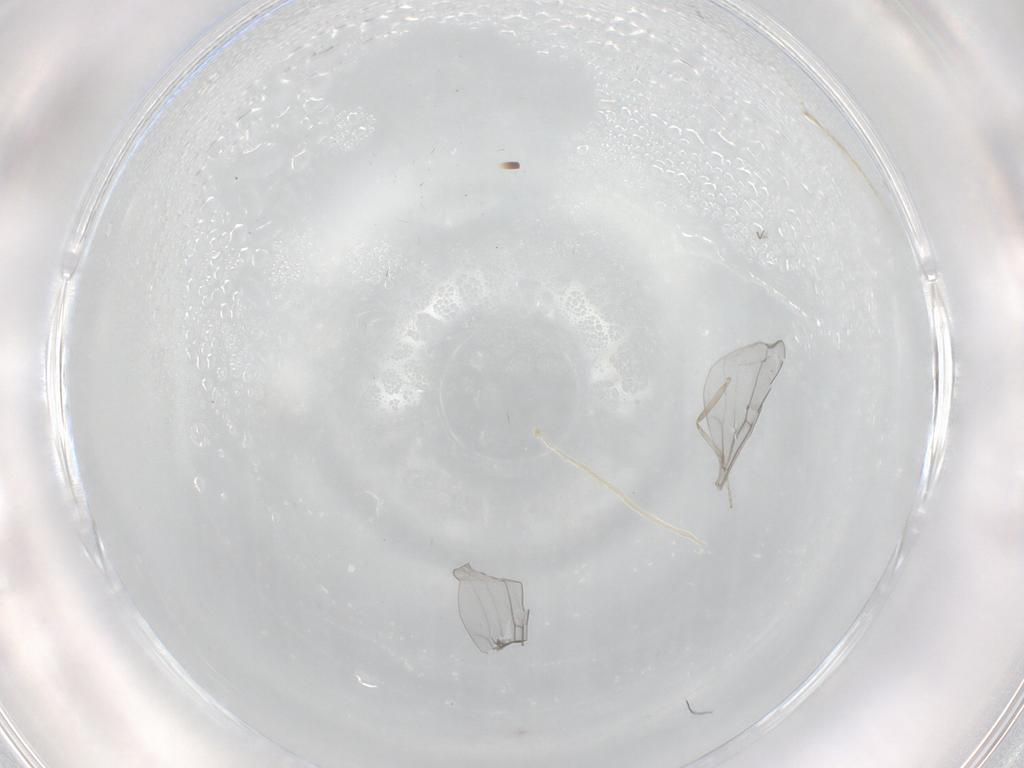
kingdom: Animalia
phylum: Arthropoda
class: Insecta
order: Diptera
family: Cecidomyiidae
